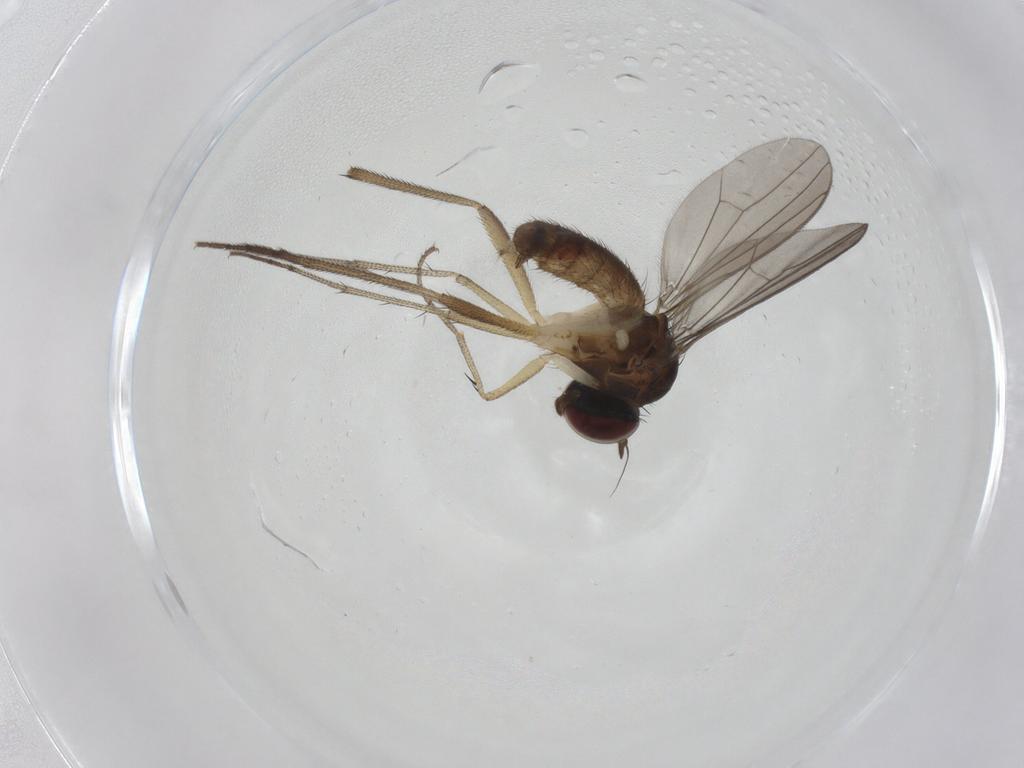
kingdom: Animalia
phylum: Arthropoda
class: Insecta
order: Diptera
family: Dolichopodidae
